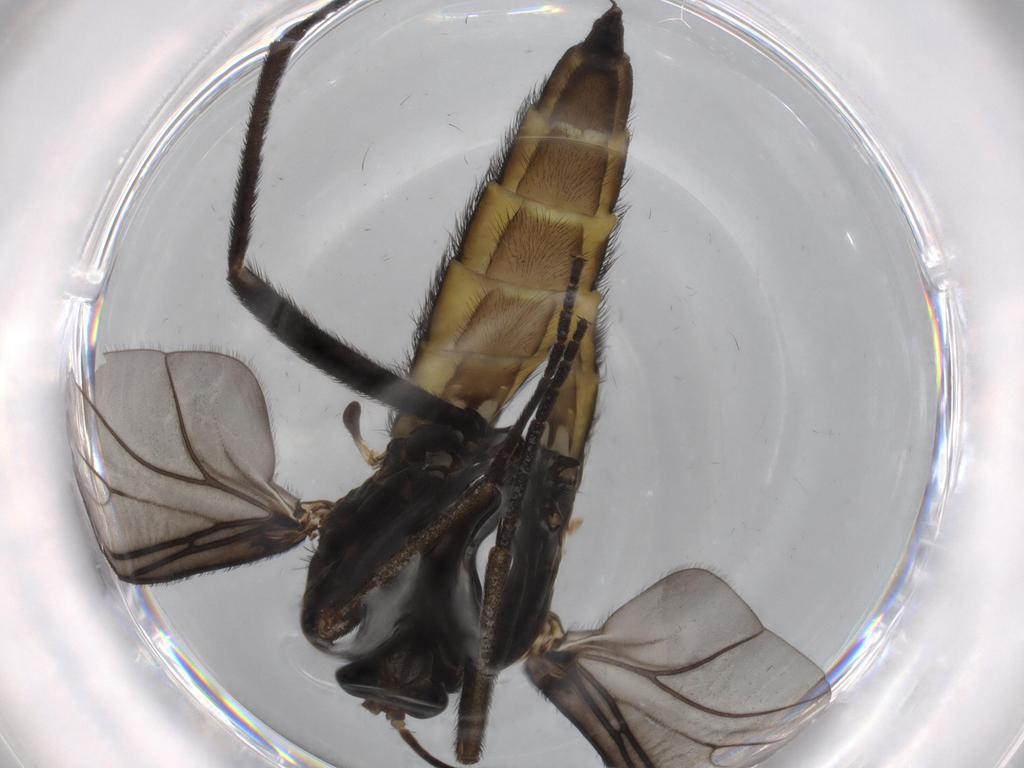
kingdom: Animalia
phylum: Arthropoda
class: Insecta
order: Diptera
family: Sciaridae
